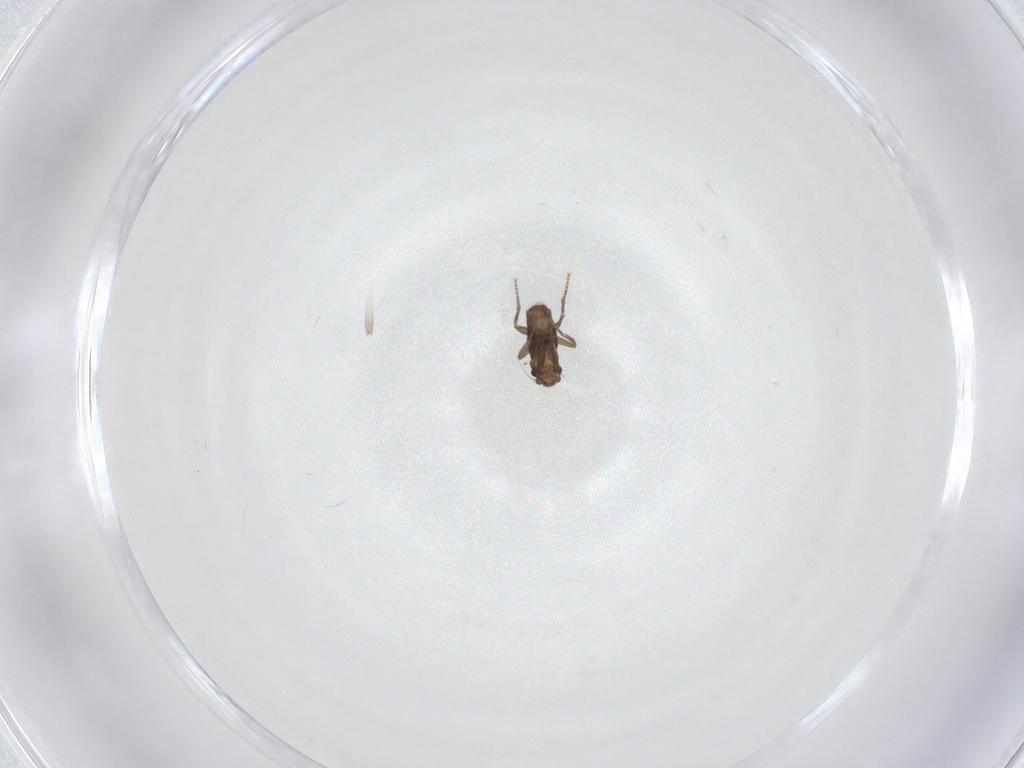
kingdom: Animalia
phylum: Arthropoda
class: Insecta
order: Diptera
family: Phoridae
